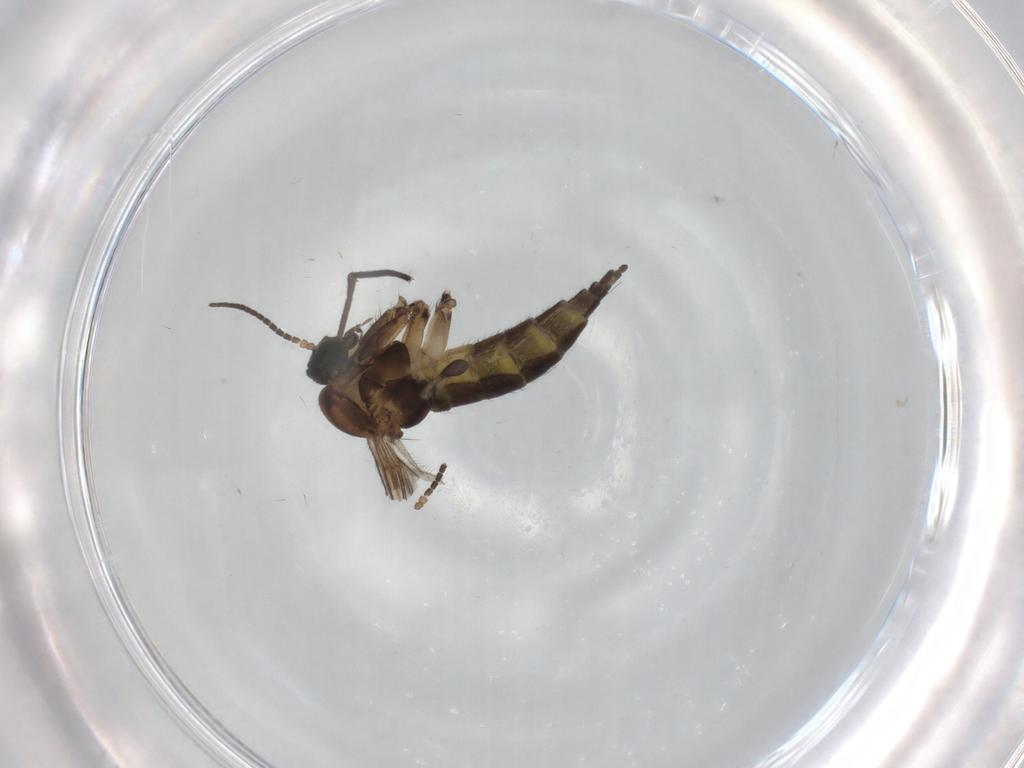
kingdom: Animalia
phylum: Arthropoda
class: Insecta
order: Diptera
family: Sciaridae
